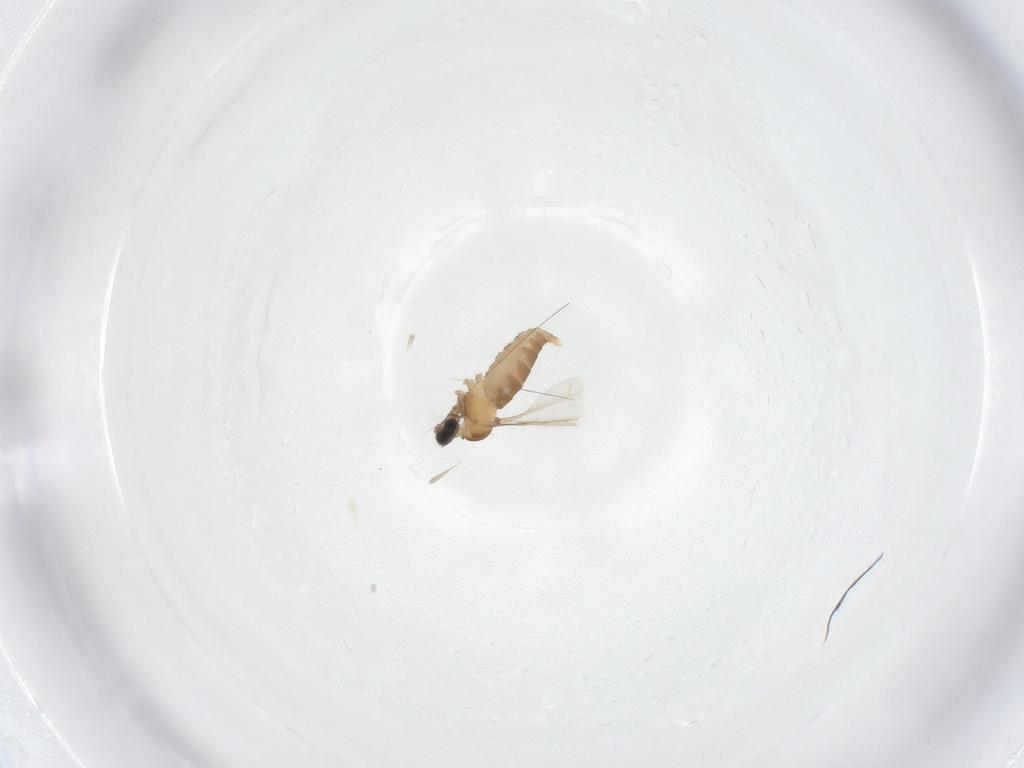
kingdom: Animalia
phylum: Arthropoda
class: Insecta
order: Diptera
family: Cecidomyiidae
